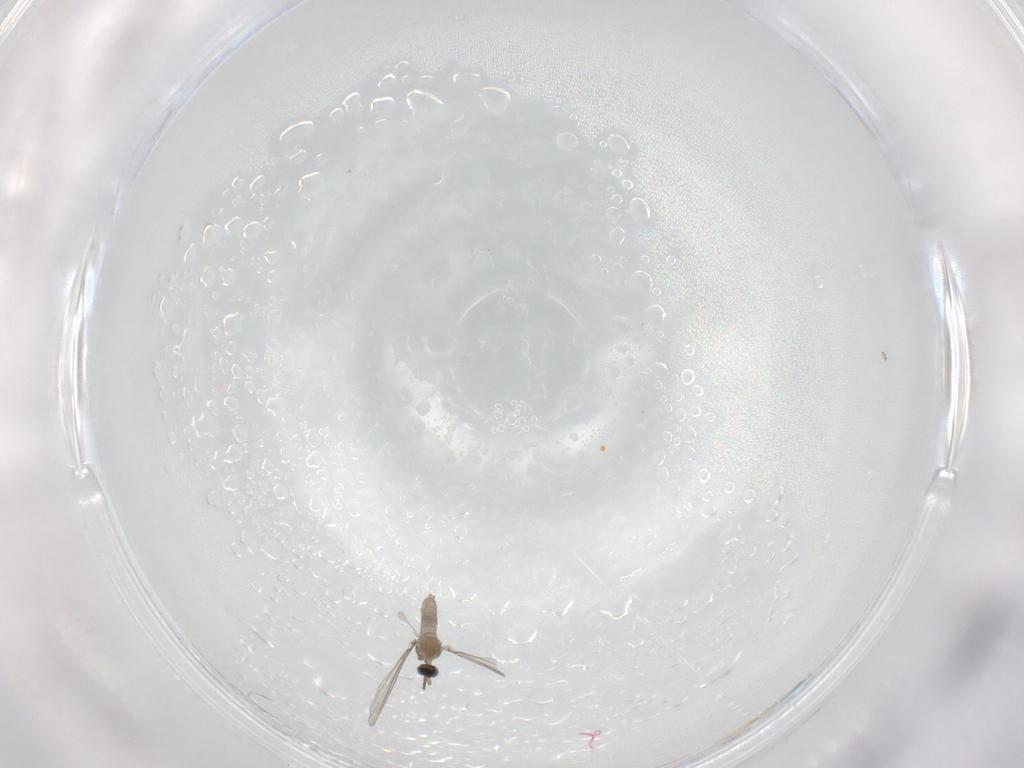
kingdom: Animalia
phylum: Arthropoda
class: Insecta
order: Diptera
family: Cecidomyiidae
